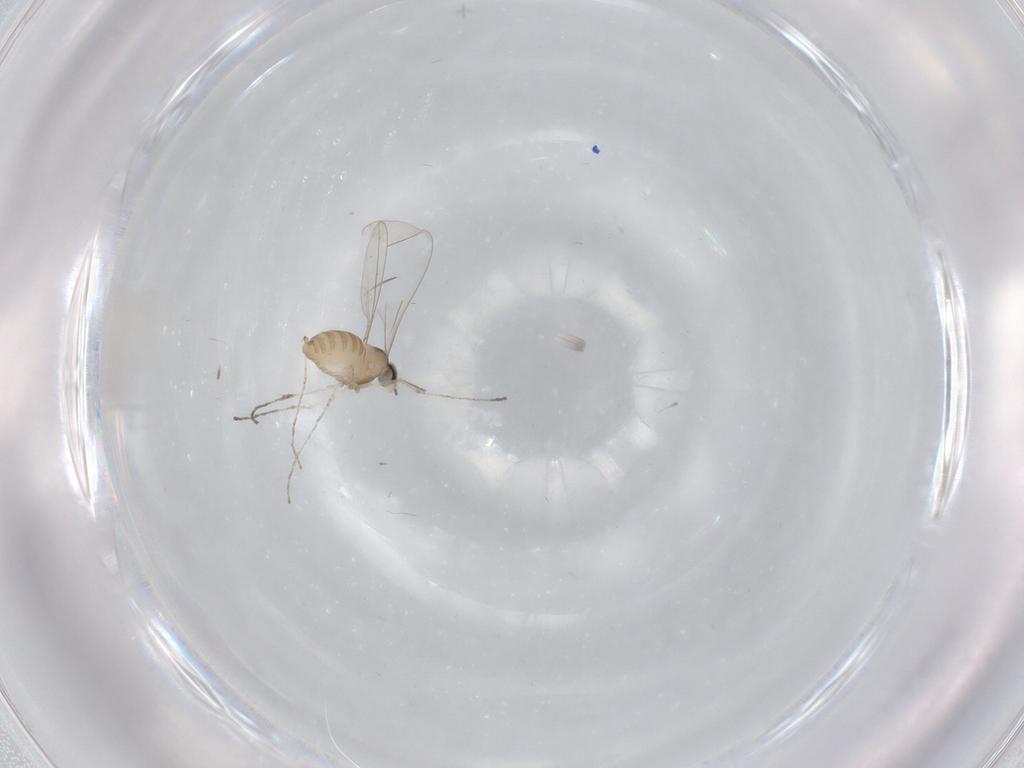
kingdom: Animalia
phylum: Arthropoda
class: Insecta
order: Diptera
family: Cecidomyiidae
